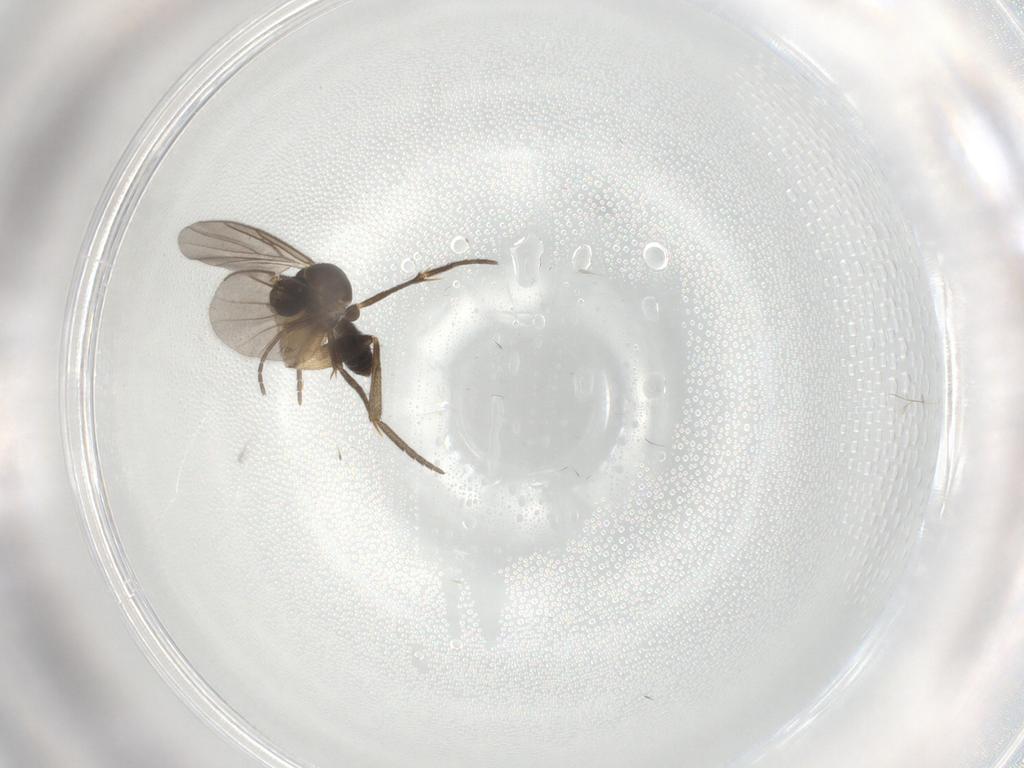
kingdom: Animalia
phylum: Arthropoda
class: Insecta
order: Diptera
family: Mycetophilidae
